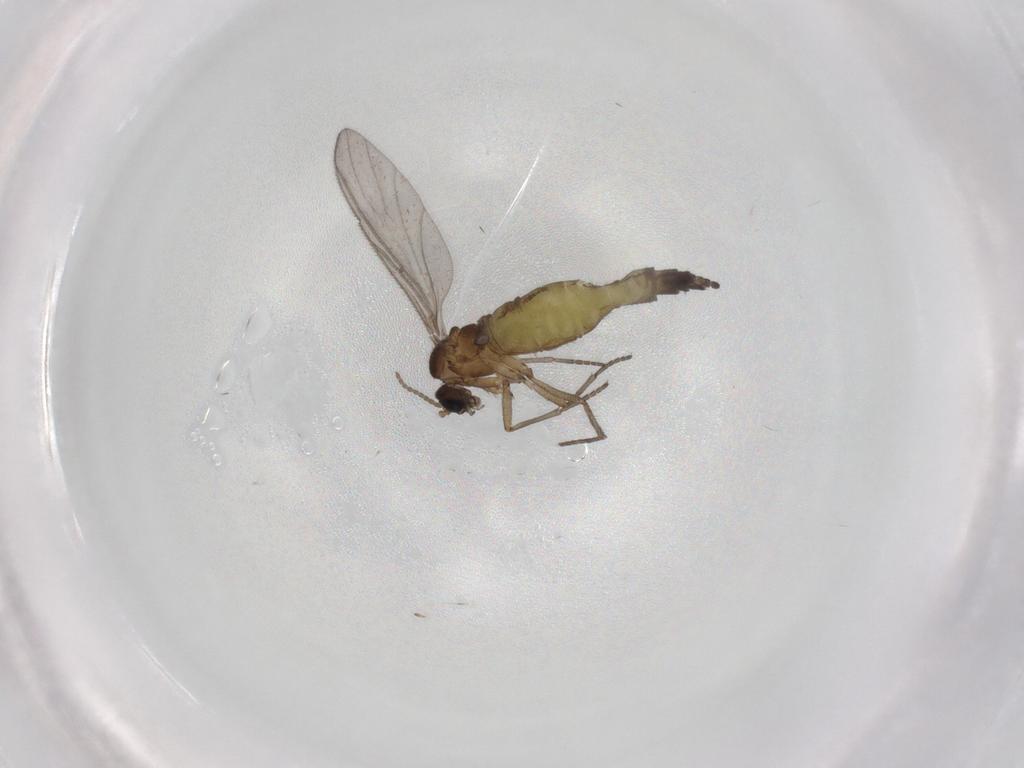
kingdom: Animalia
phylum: Arthropoda
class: Insecta
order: Diptera
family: Sciaridae
